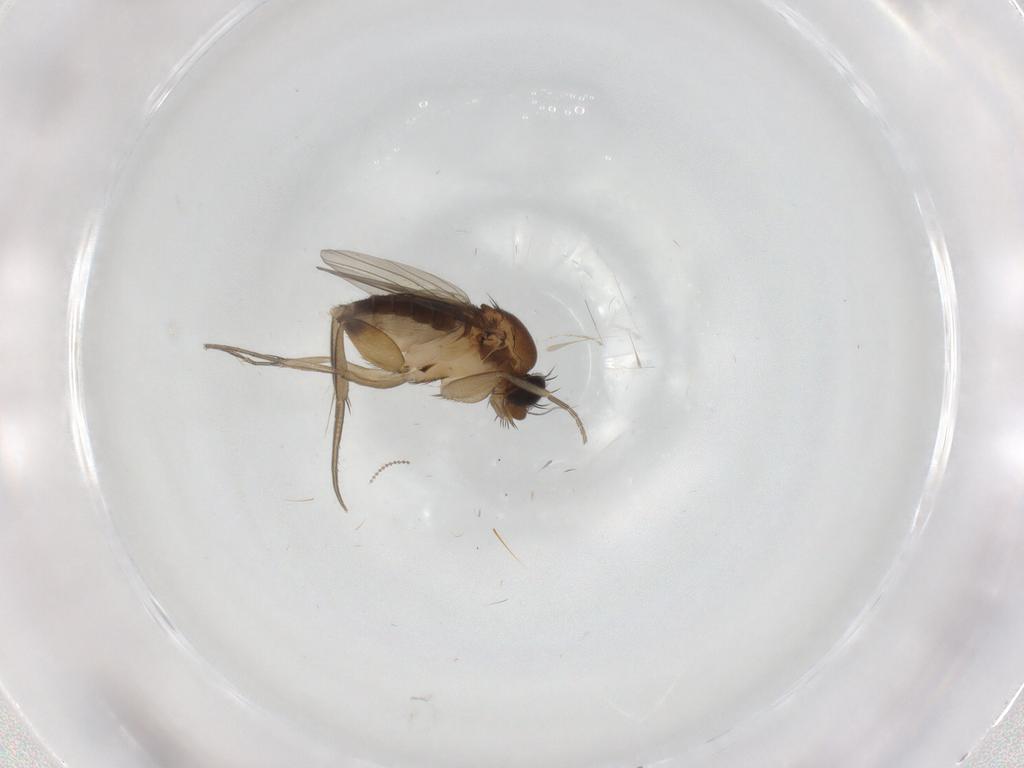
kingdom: Animalia
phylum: Arthropoda
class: Insecta
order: Diptera
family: Phoridae
